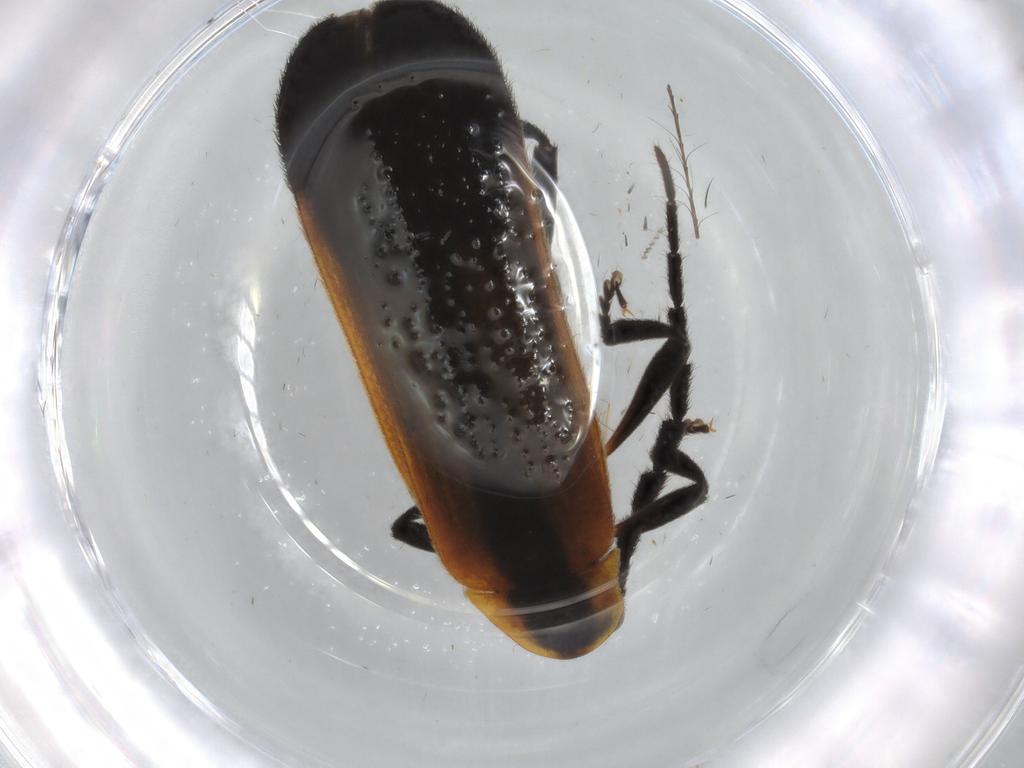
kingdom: Animalia
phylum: Arthropoda
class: Insecta
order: Coleoptera
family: Lycidae
